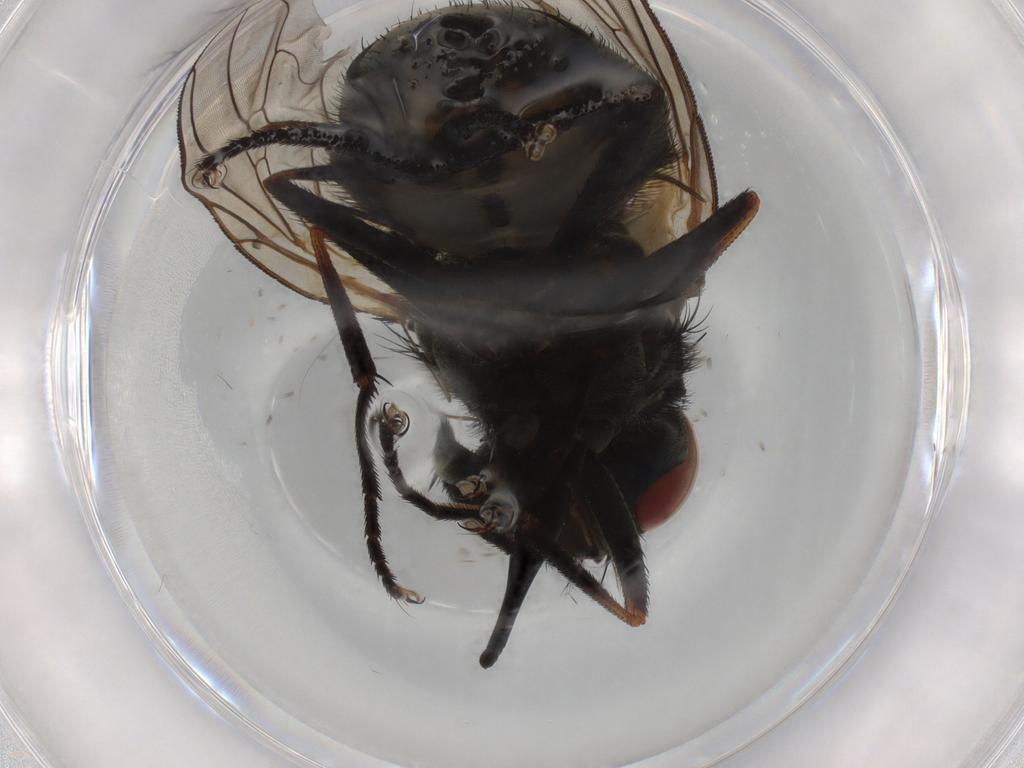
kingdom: Animalia
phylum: Arthropoda
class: Insecta
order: Diptera
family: Muscidae
